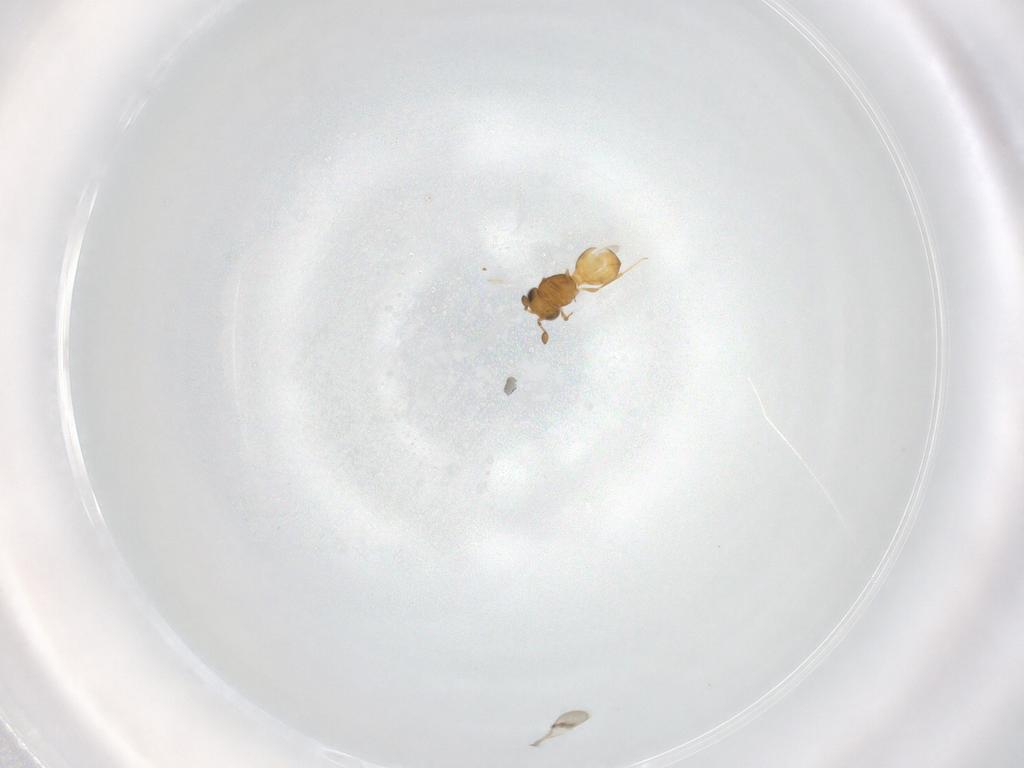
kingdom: Animalia
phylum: Arthropoda
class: Insecta
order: Hymenoptera
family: Scelionidae
